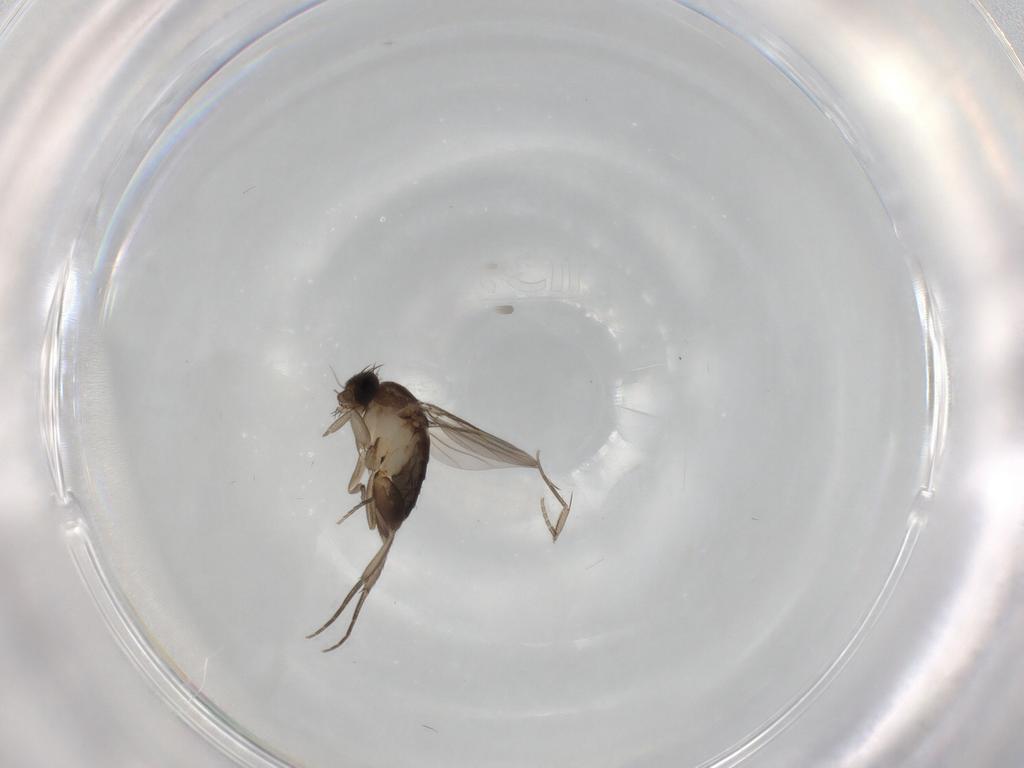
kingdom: Animalia
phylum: Arthropoda
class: Insecta
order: Diptera
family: Phoridae
